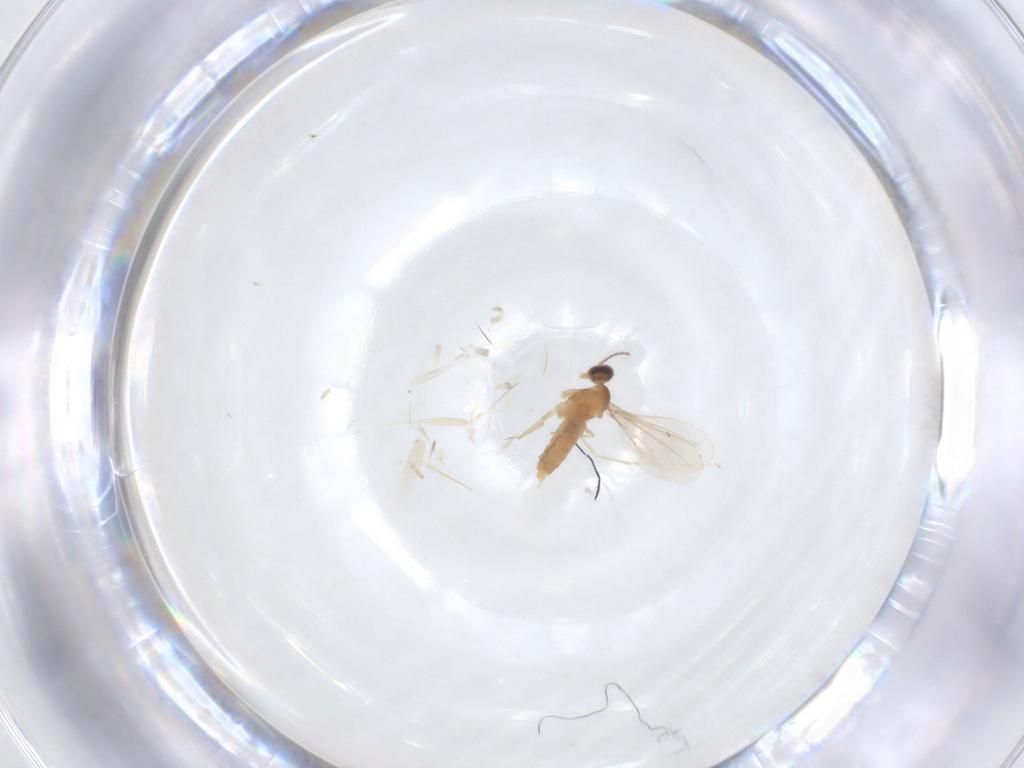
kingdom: Animalia
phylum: Arthropoda
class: Insecta
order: Diptera
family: Cecidomyiidae
